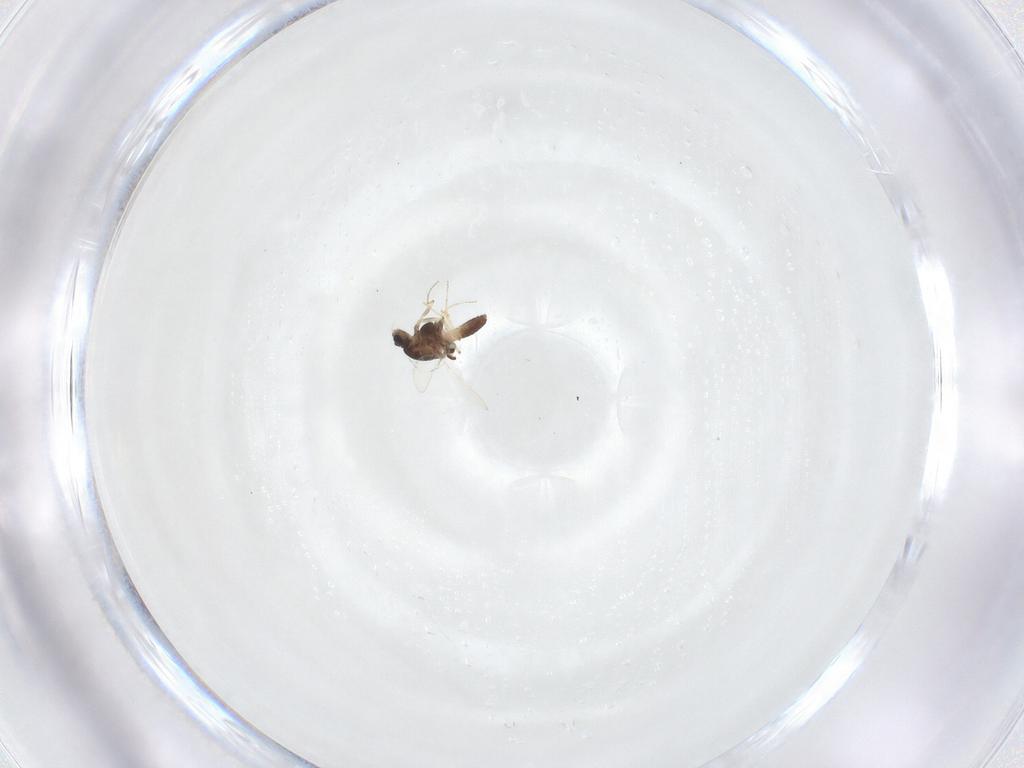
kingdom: Animalia
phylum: Arthropoda
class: Insecta
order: Diptera
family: Chironomidae
